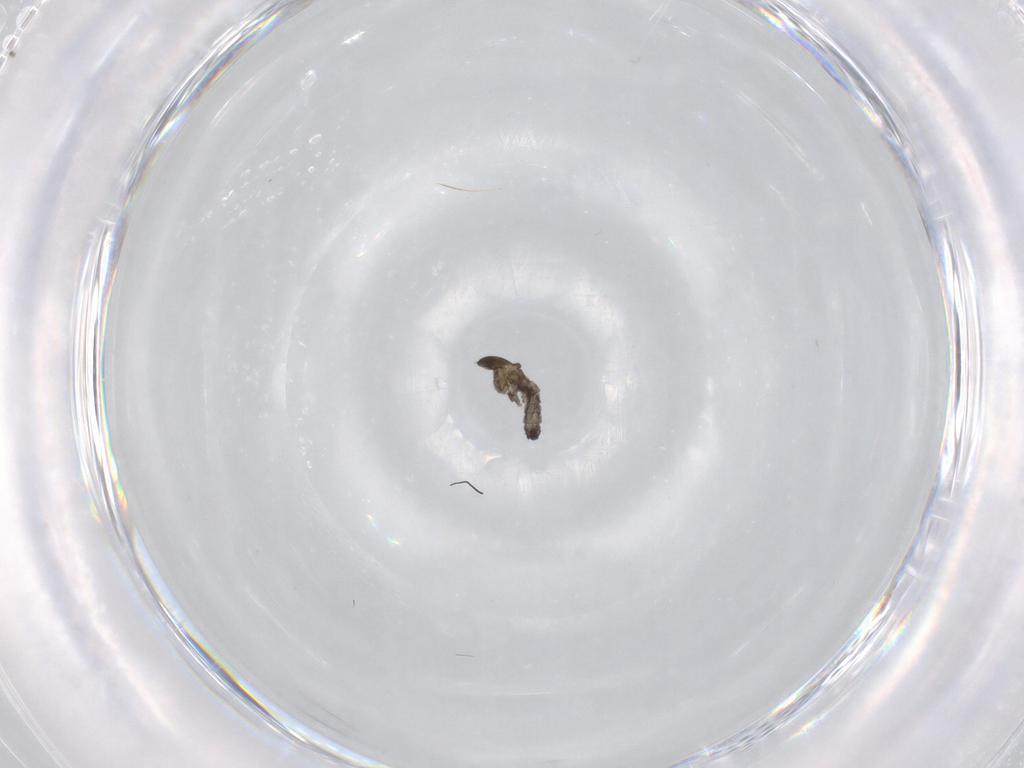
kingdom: Animalia
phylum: Arthropoda
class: Insecta
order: Diptera
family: Cecidomyiidae
